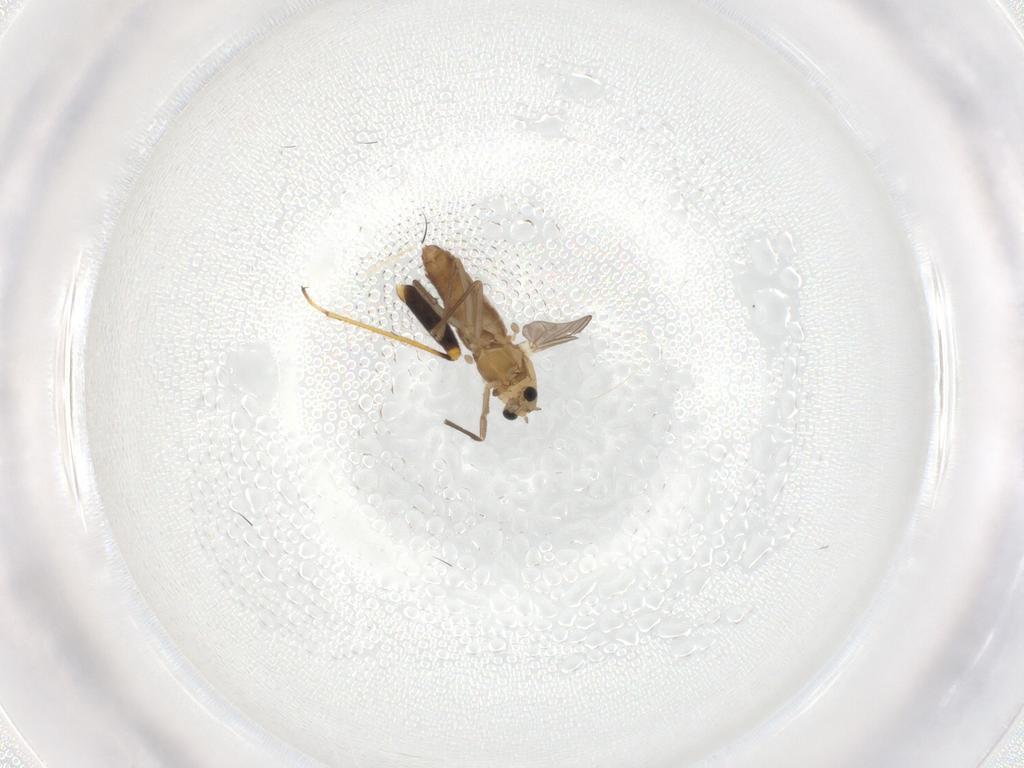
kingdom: Animalia
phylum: Arthropoda
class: Insecta
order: Diptera
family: Chironomidae
